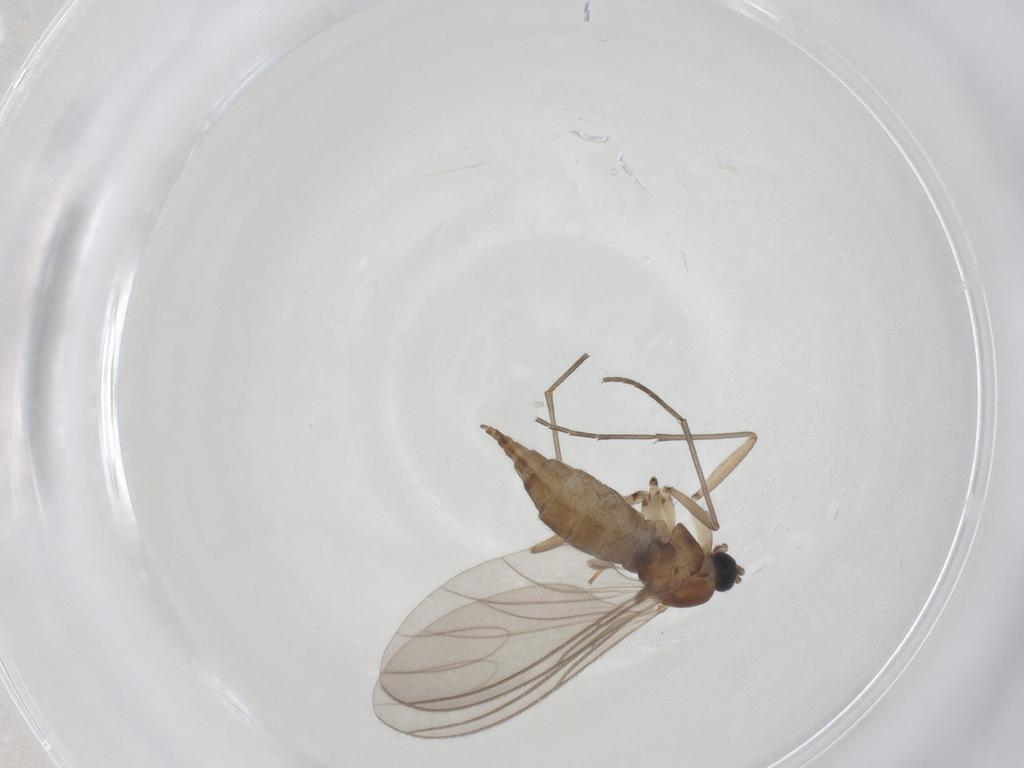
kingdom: Animalia
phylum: Arthropoda
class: Insecta
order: Diptera
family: Sciaridae
